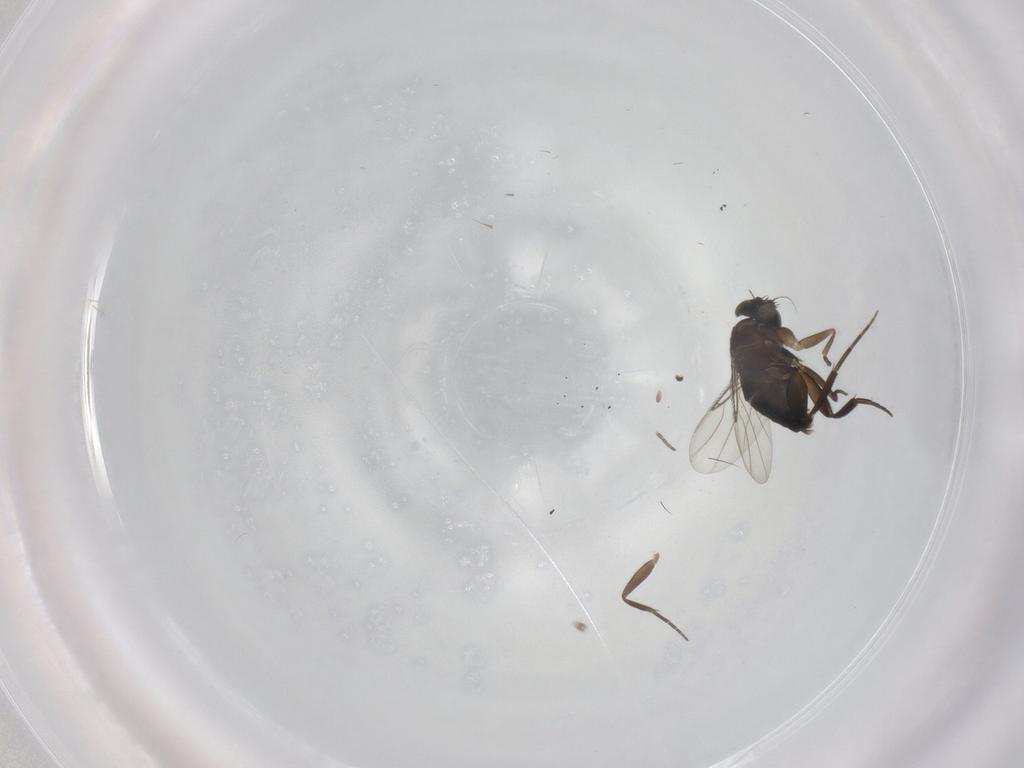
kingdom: Animalia
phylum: Arthropoda
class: Insecta
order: Diptera
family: Phoridae
